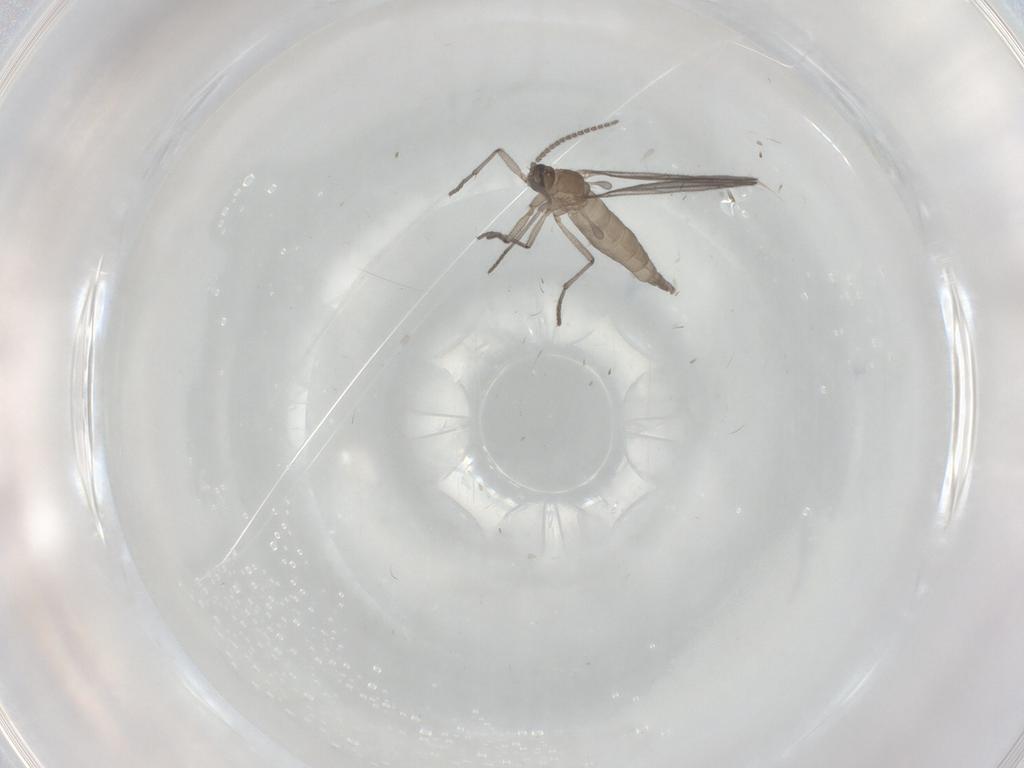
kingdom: Animalia
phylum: Arthropoda
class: Insecta
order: Diptera
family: Sciaridae
